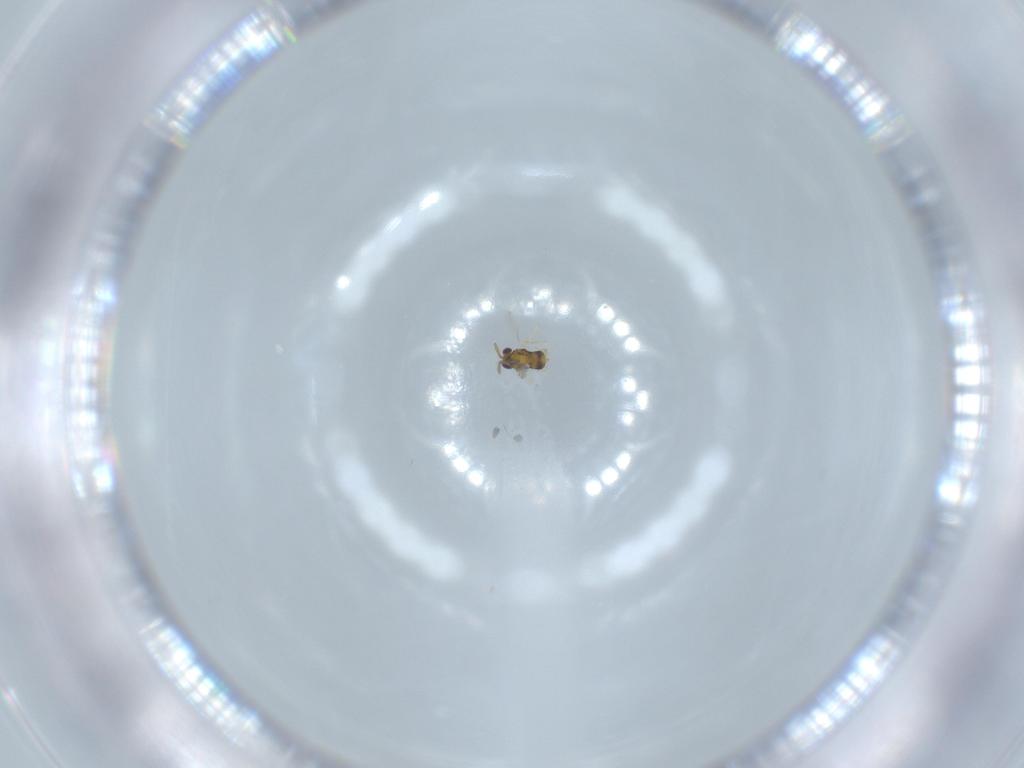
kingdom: Animalia
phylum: Arthropoda
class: Insecta
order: Hymenoptera
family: Aphelinidae
